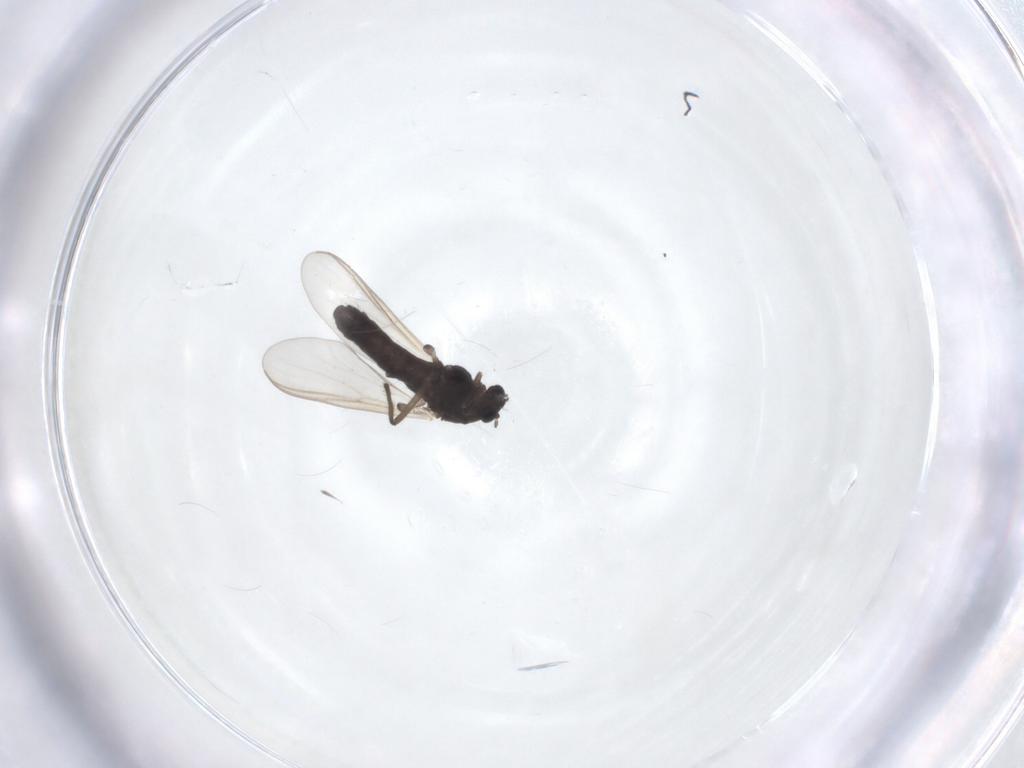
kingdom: Animalia
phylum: Arthropoda
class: Insecta
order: Diptera
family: Chironomidae
